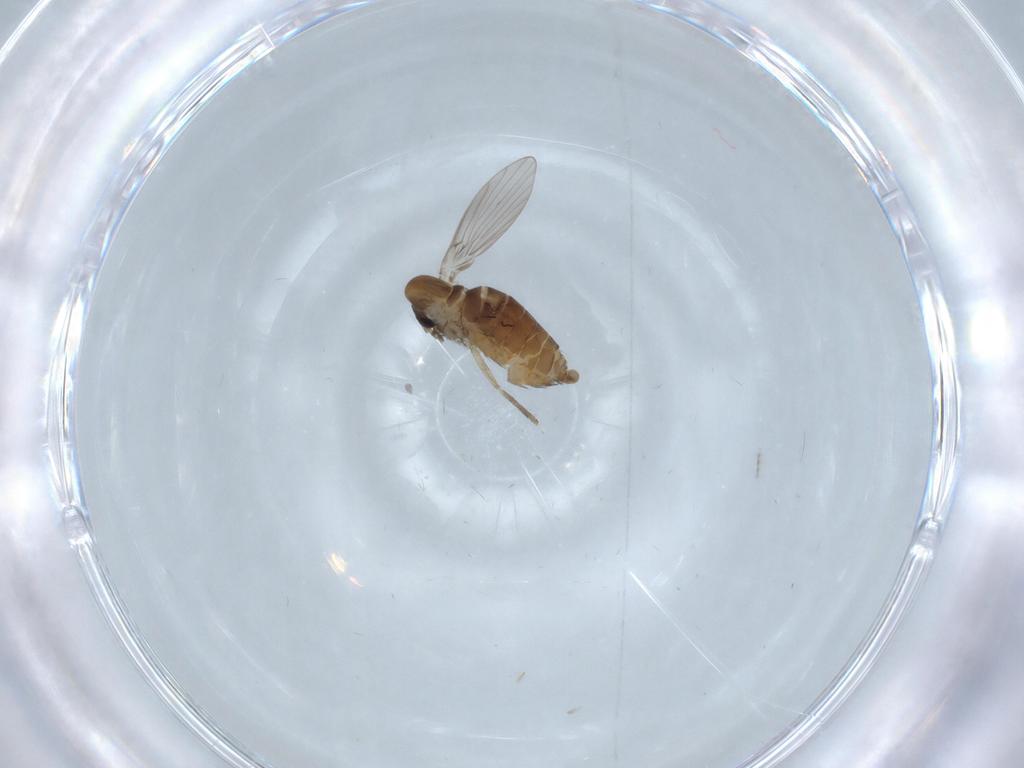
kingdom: Animalia
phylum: Arthropoda
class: Insecta
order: Diptera
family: Psychodidae
